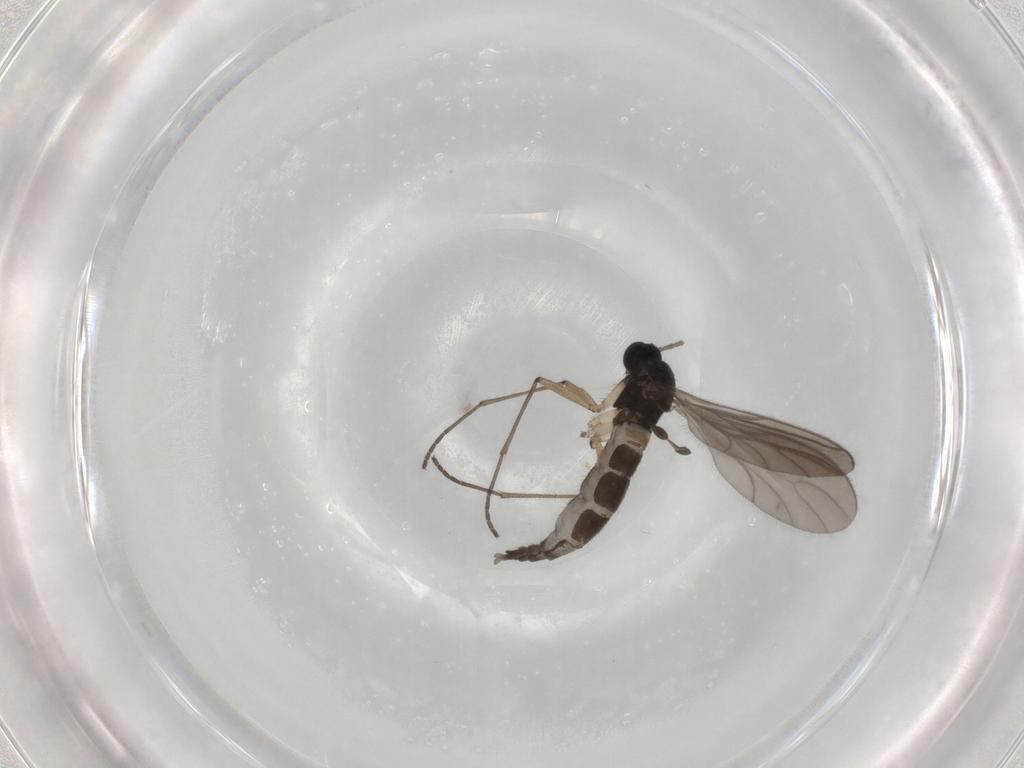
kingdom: Animalia
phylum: Arthropoda
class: Insecta
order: Diptera
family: Sciaridae
